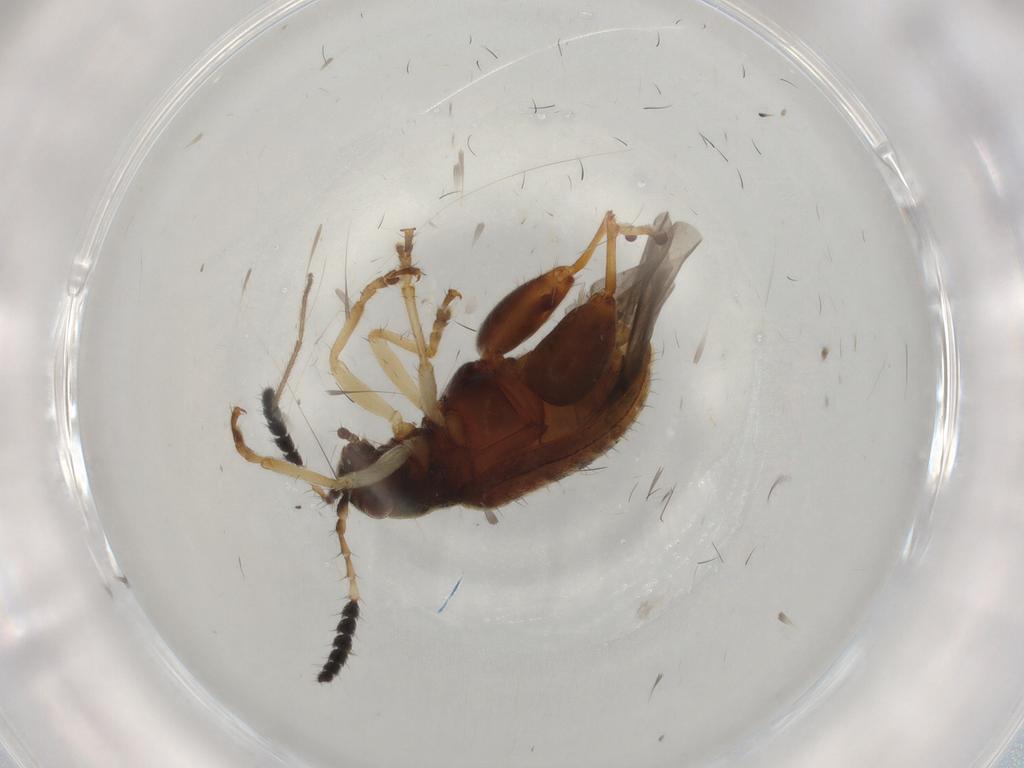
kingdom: Animalia
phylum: Arthropoda
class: Insecta
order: Coleoptera
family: Chrysomelidae
